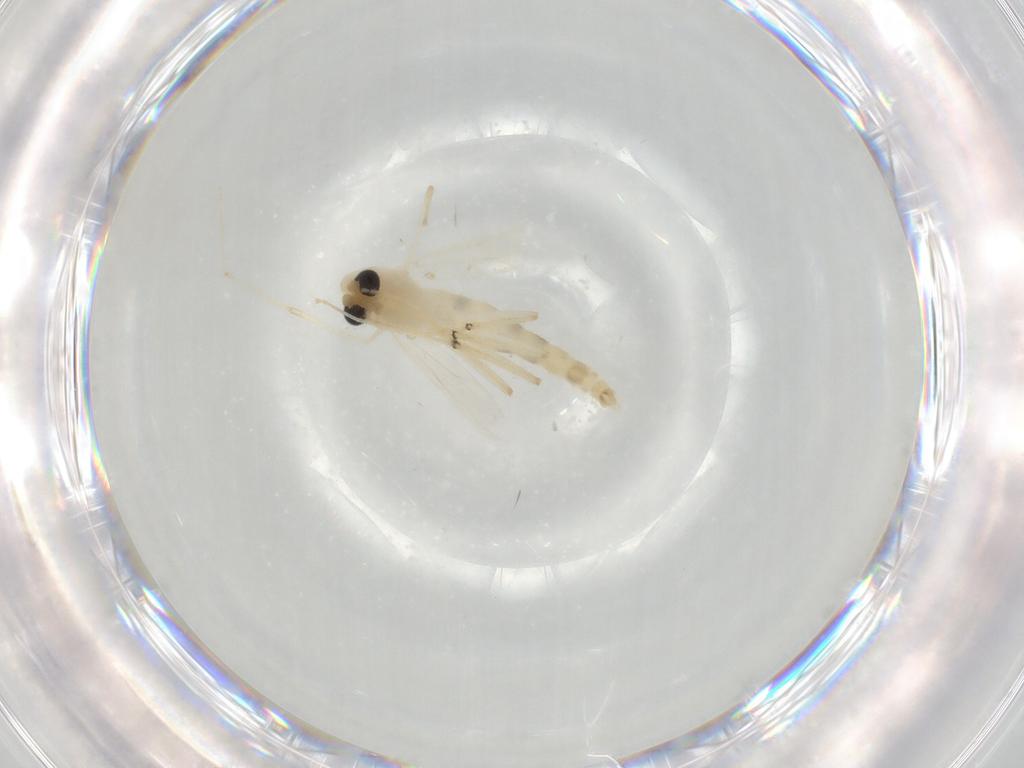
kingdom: Animalia
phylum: Arthropoda
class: Insecta
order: Diptera
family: Chironomidae
